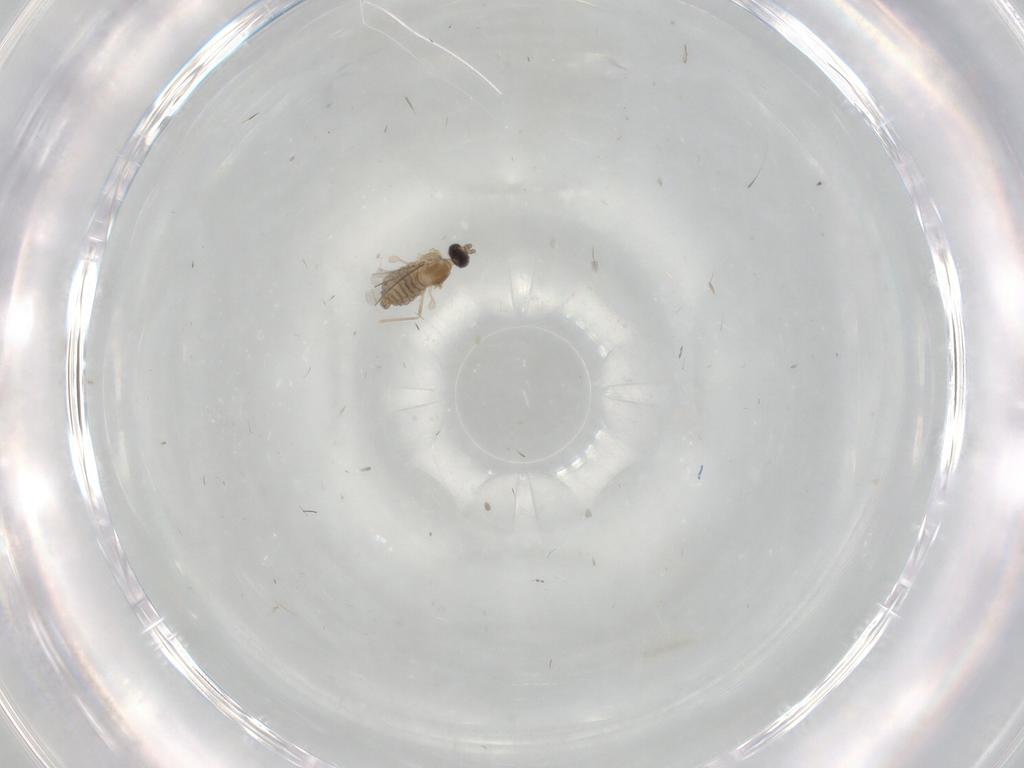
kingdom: Animalia
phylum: Arthropoda
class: Insecta
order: Diptera
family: Cecidomyiidae
